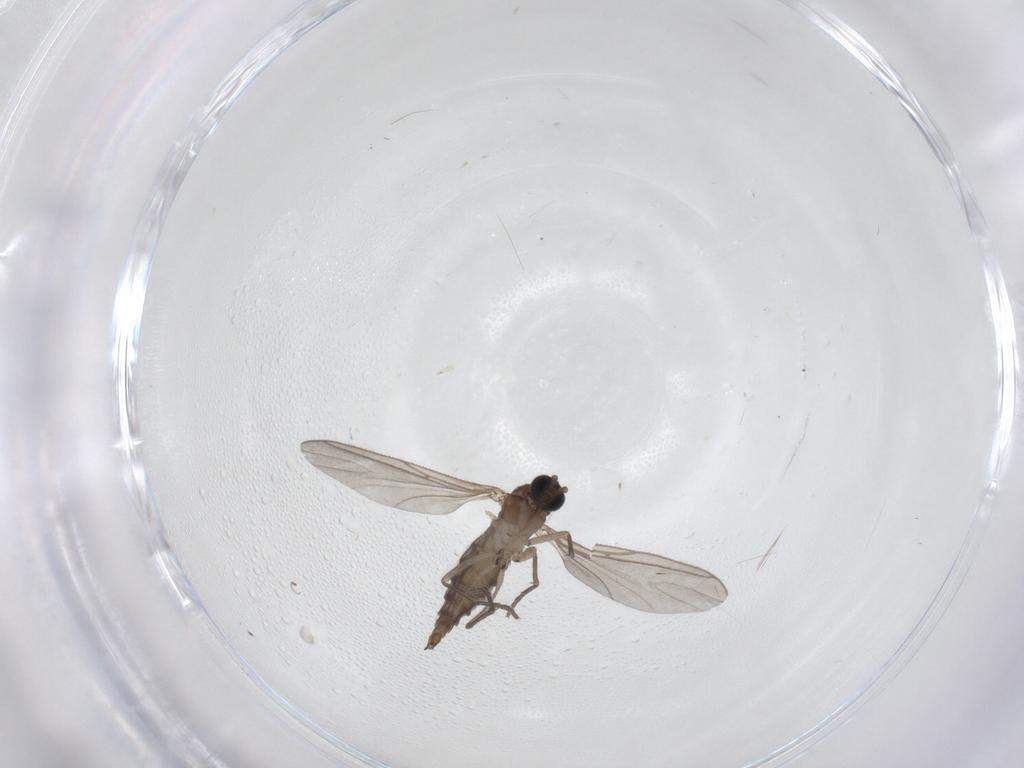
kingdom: Animalia
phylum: Arthropoda
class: Insecta
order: Diptera
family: Sciaridae
